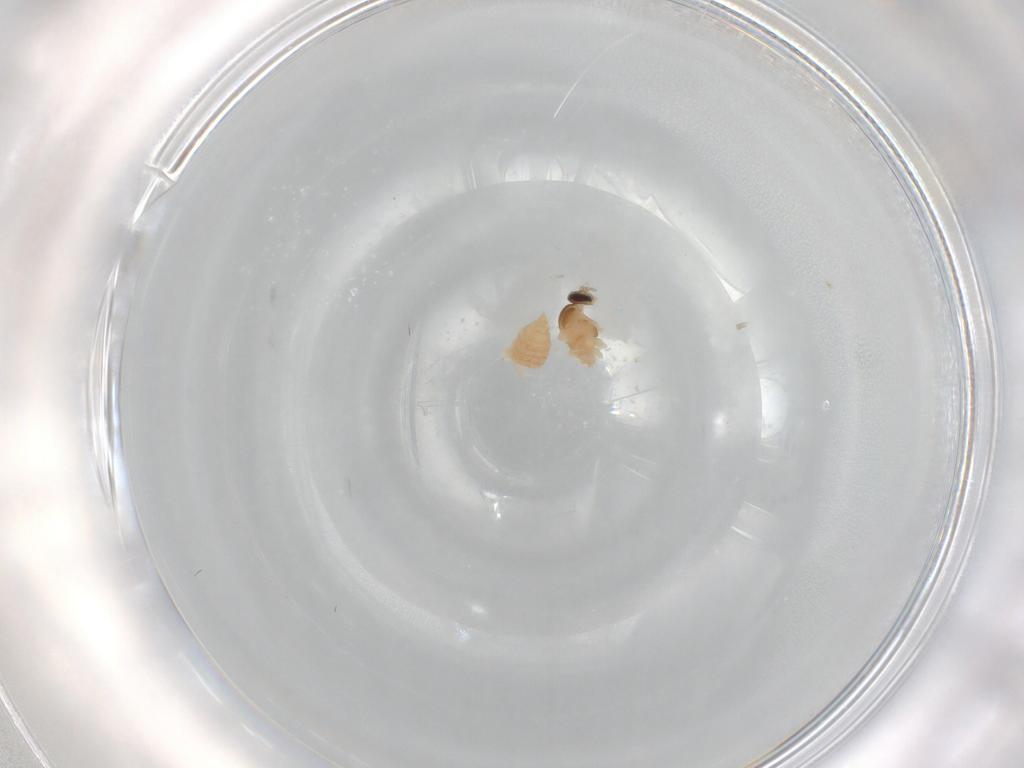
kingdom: Animalia
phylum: Arthropoda
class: Insecta
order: Diptera
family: Cecidomyiidae
